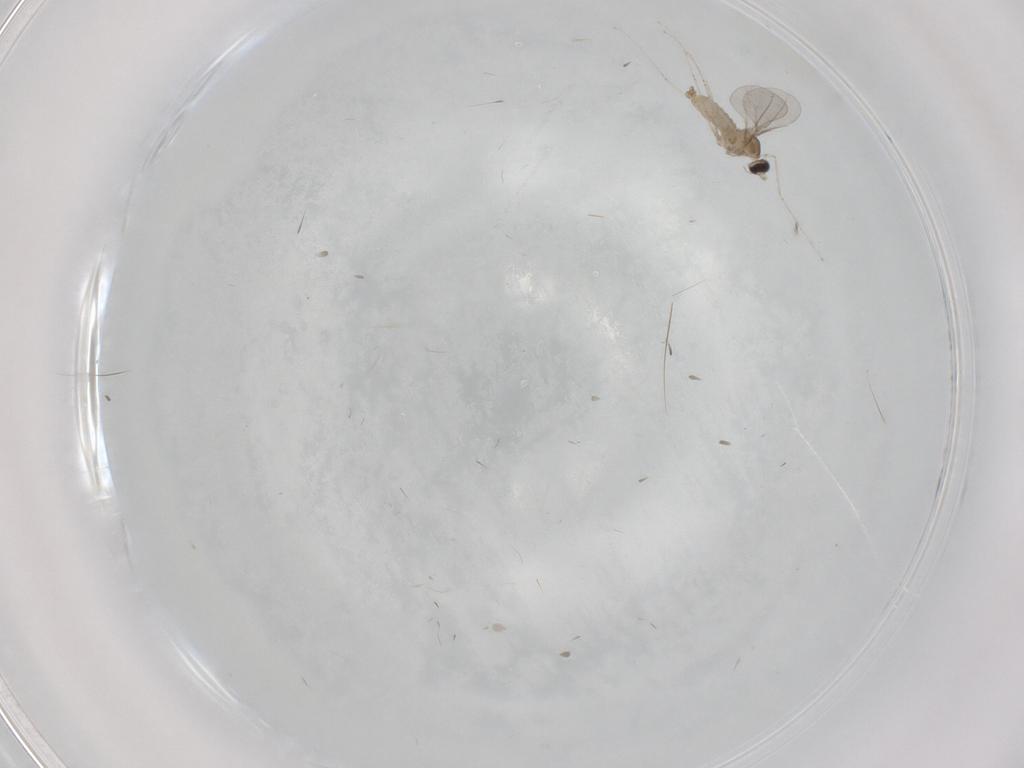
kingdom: Animalia
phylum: Arthropoda
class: Insecta
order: Diptera
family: Cecidomyiidae
